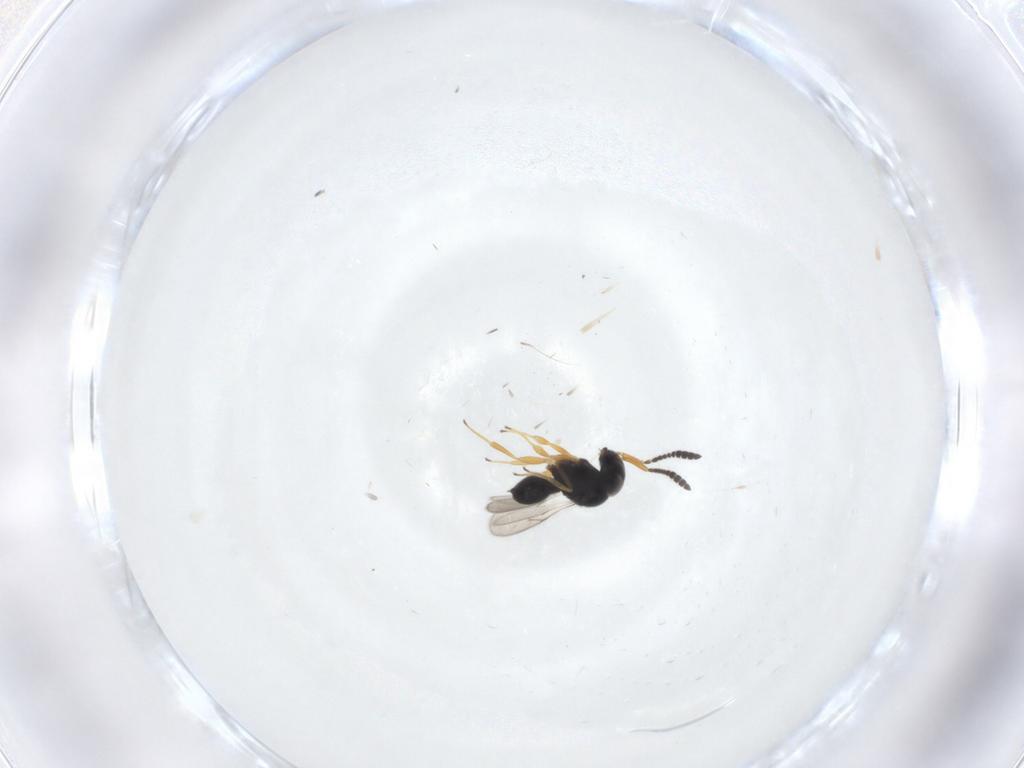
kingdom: Animalia
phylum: Arthropoda
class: Insecta
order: Hymenoptera
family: Scelionidae
